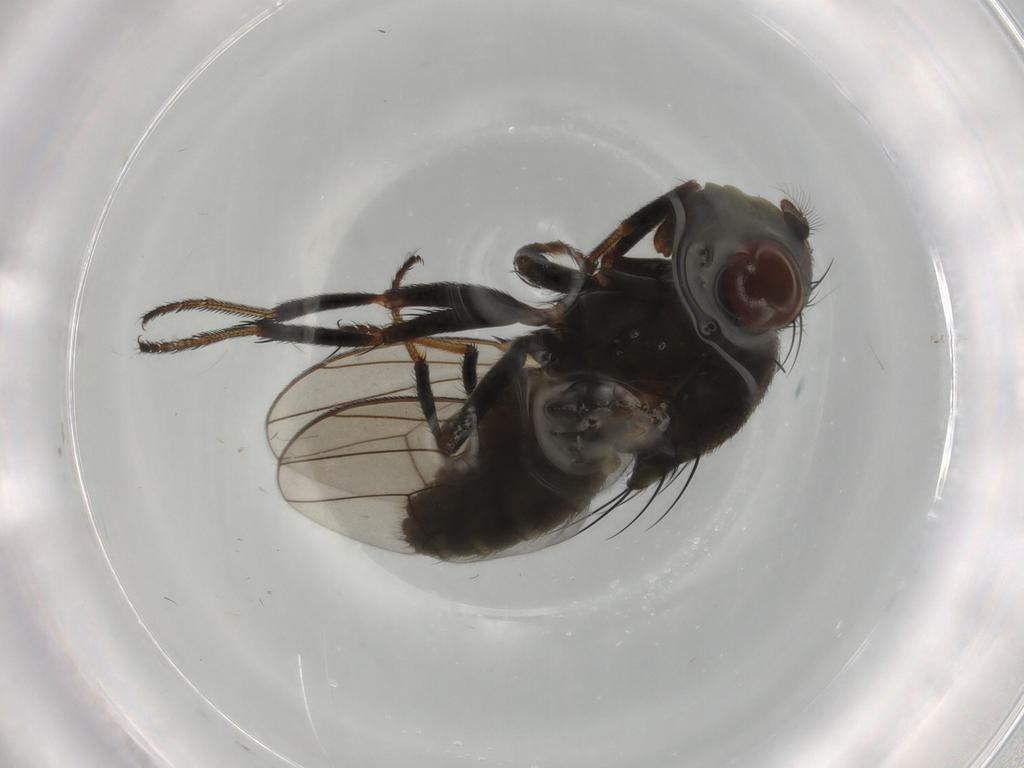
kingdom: Animalia
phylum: Arthropoda
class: Insecta
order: Diptera
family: Ephydridae
